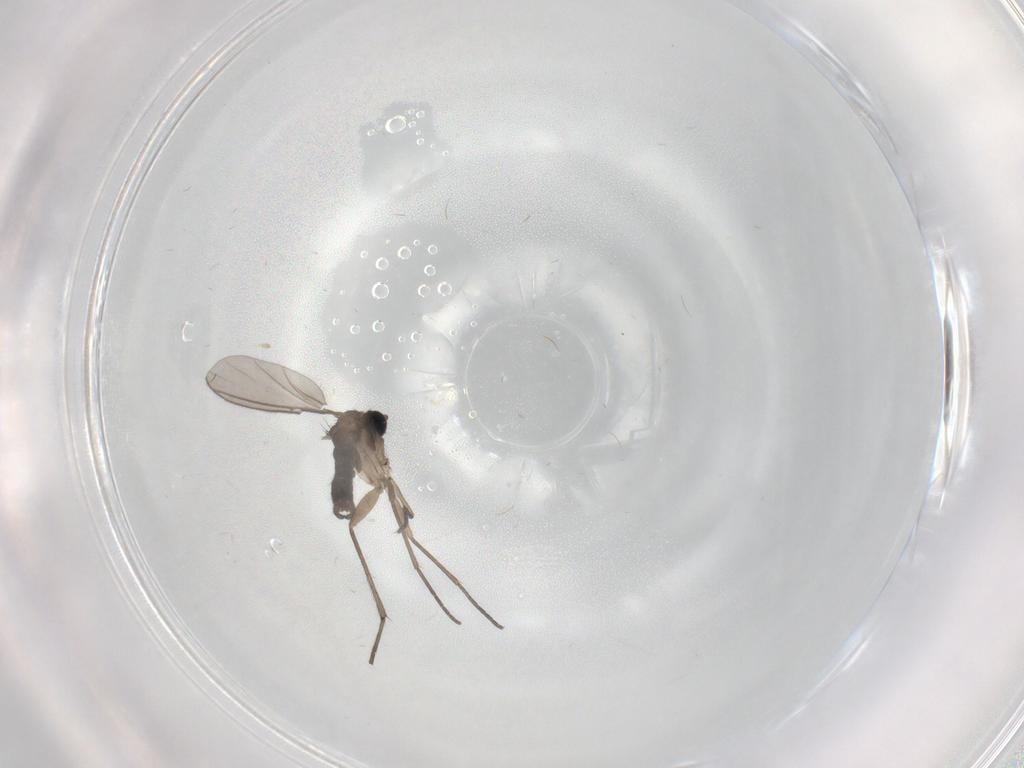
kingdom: Animalia
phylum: Arthropoda
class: Insecta
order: Diptera
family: Sciaridae
